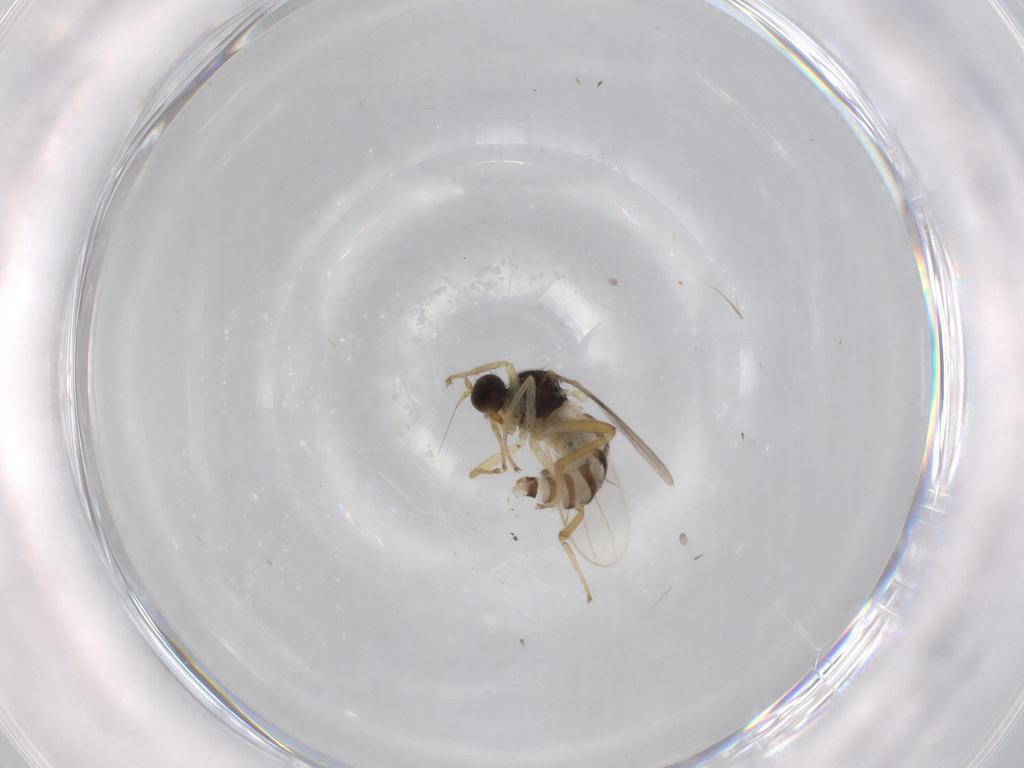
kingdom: Animalia
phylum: Arthropoda
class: Insecta
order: Diptera
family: Hybotidae
